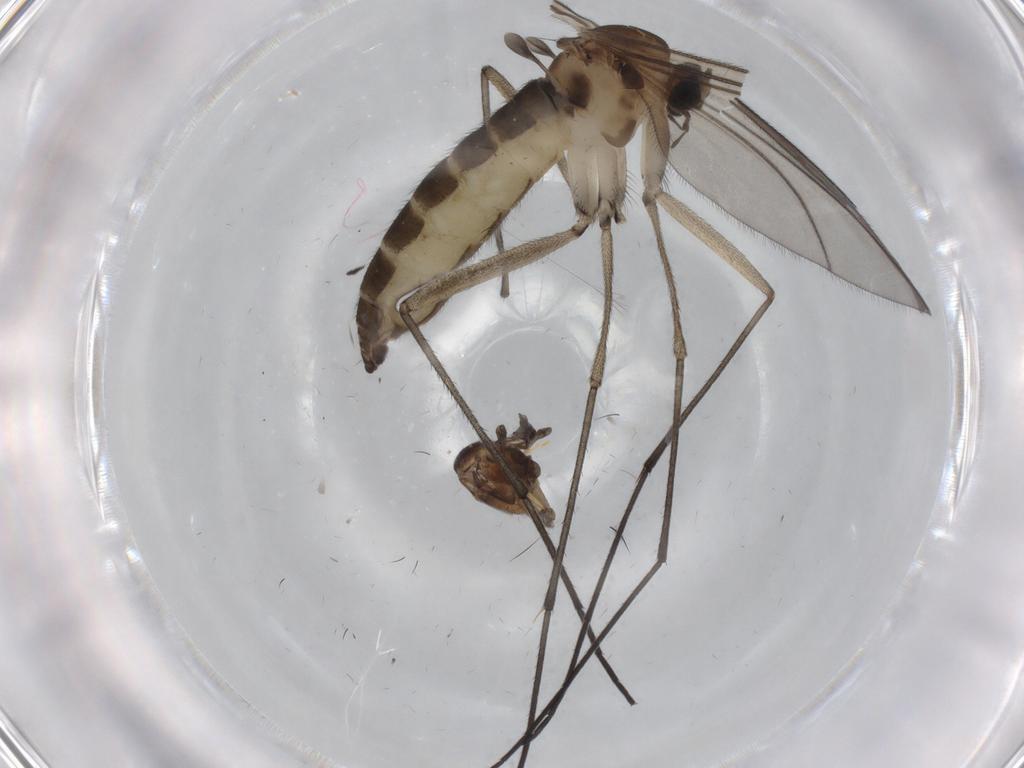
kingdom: Animalia
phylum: Arthropoda
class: Insecta
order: Diptera
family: Sciaridae
